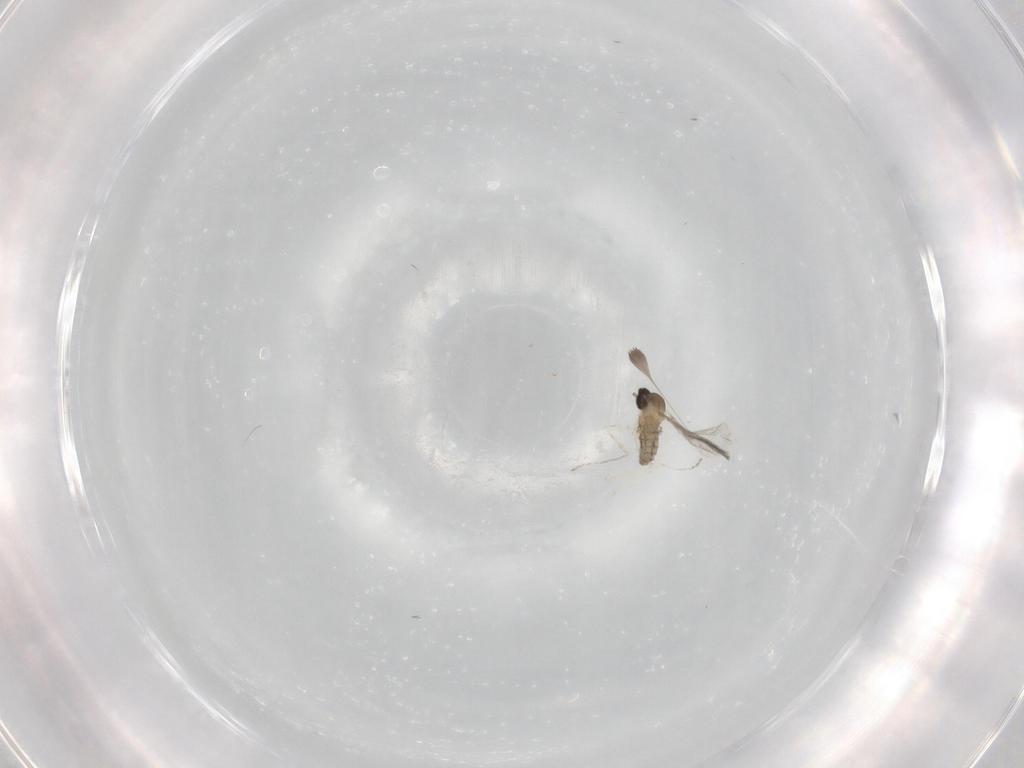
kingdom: Animalia
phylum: Arthropoda
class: Insecta
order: Diptera
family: Cecidomyiidae
